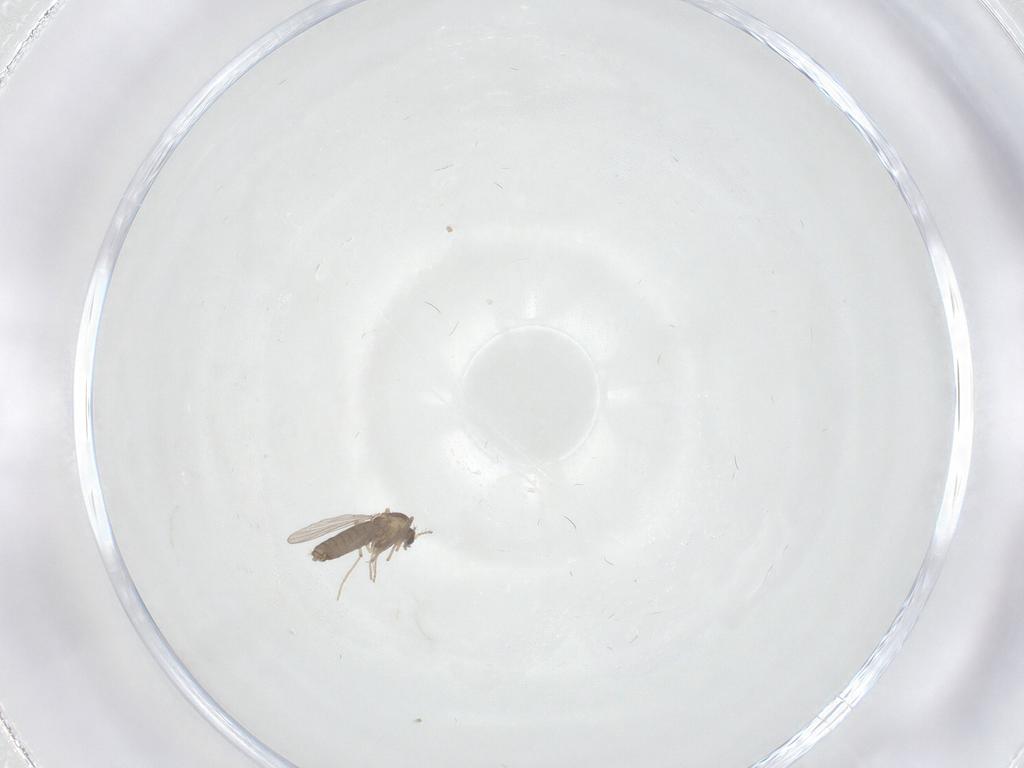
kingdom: Animalia
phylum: Arthropoda
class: Insecta
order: Diptera
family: Chironomidae
